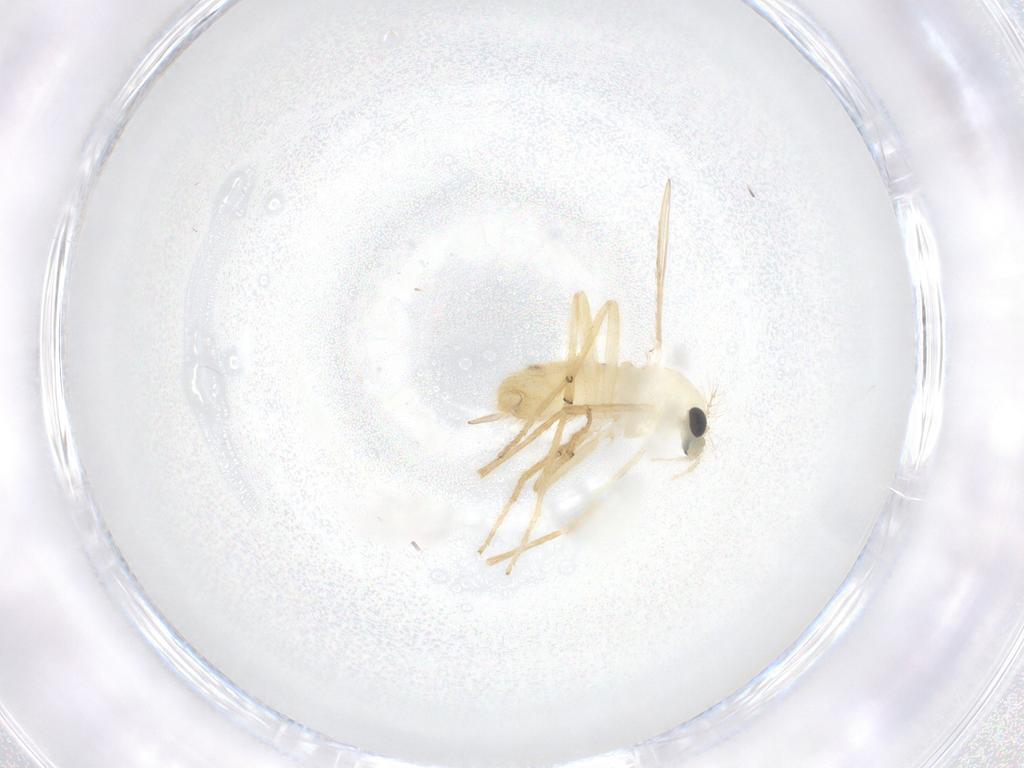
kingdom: Animalia
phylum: Arthropoda
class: Insecta
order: Diptera
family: Chironomidae
